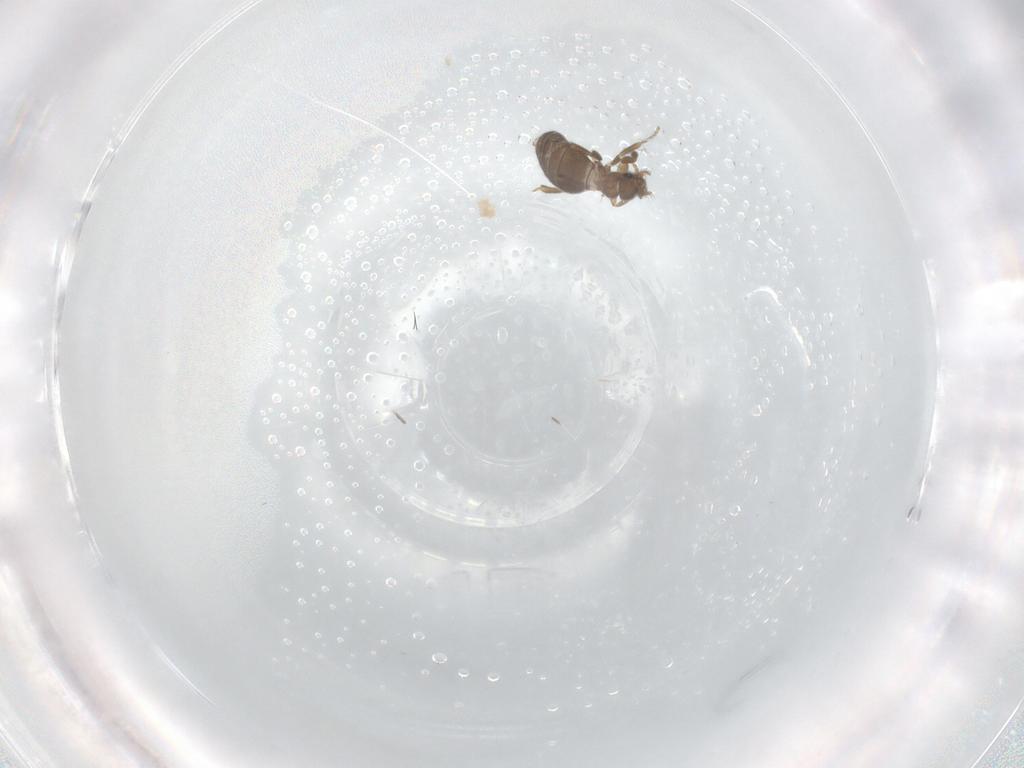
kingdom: Animalia
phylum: Arthropoda
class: Insecta
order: Diptera
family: Phoridae
